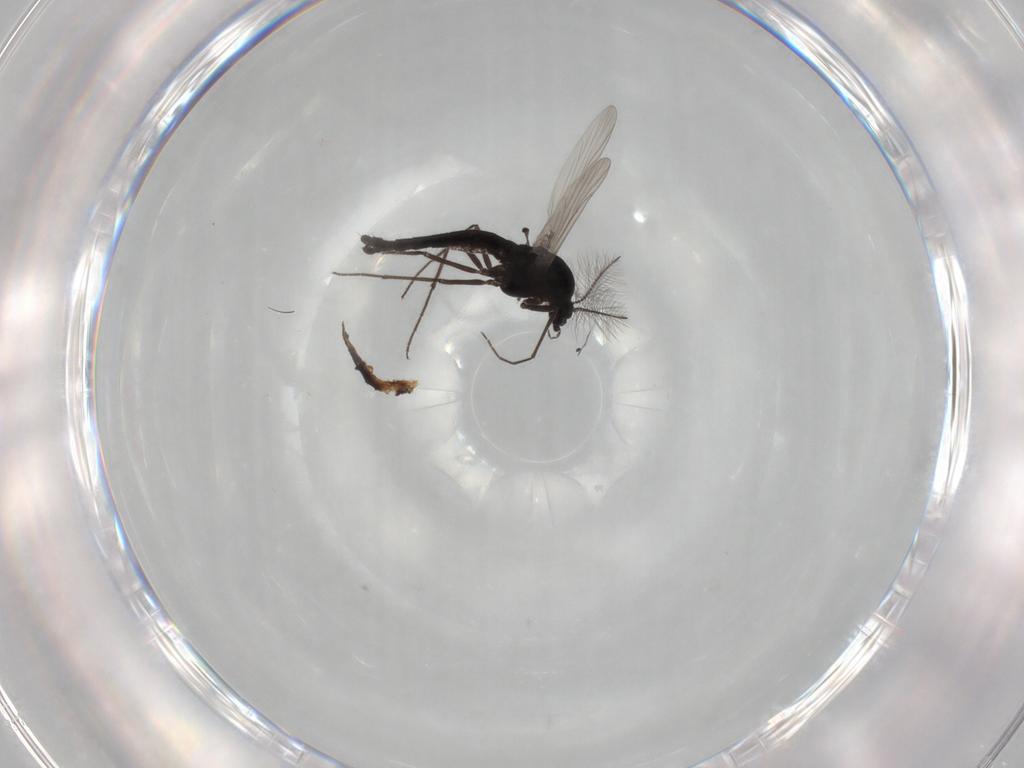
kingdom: Animalia
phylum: Arthropoda
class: Insecta
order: Diptera
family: Chironomidae
